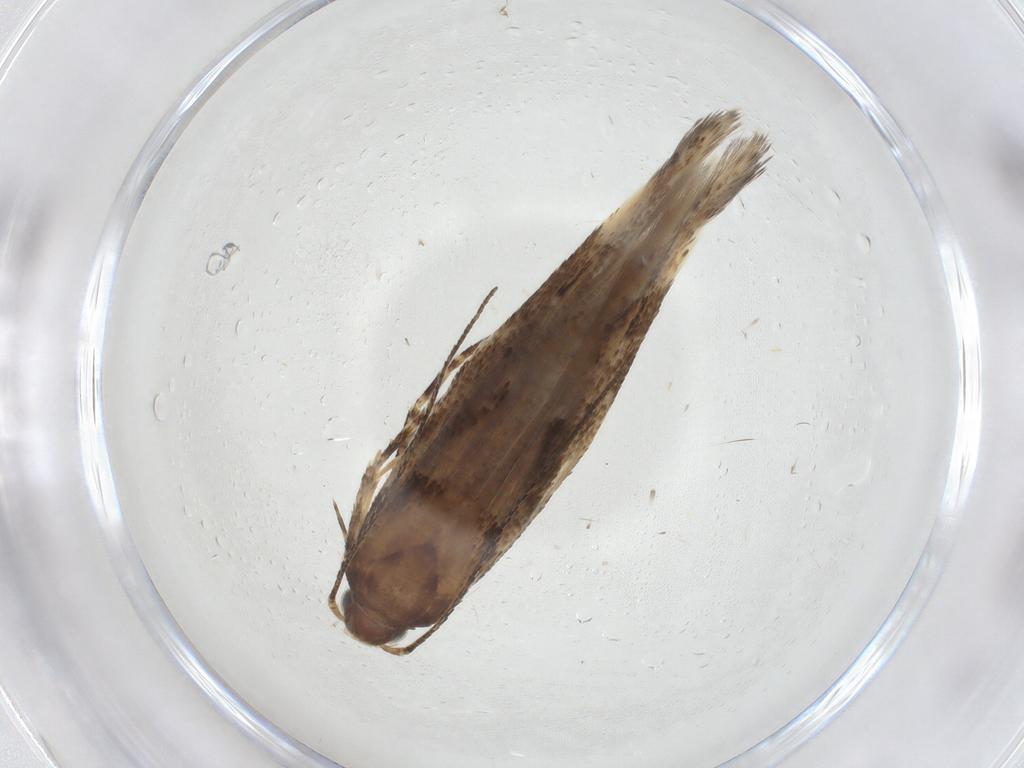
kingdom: Animalia
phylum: Arthropoda
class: Insecta
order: Lepidoptera
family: Gelechiidae
